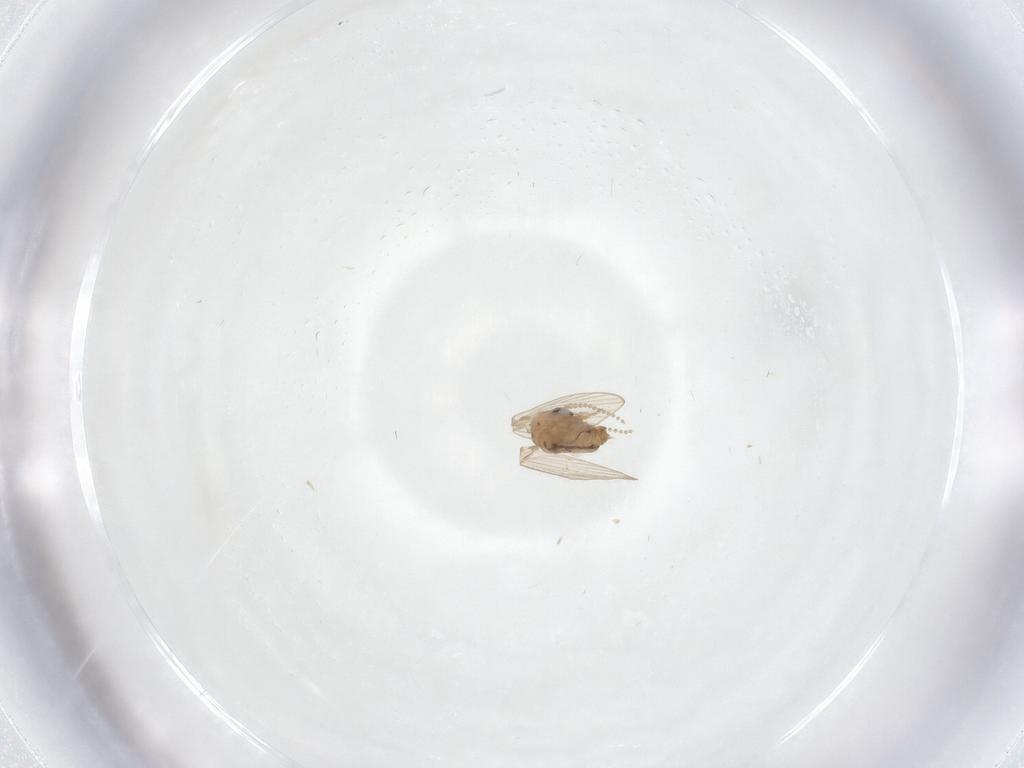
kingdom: Animalia
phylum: Arthropoda
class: Insecta
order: Diptera
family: Psychodidae
